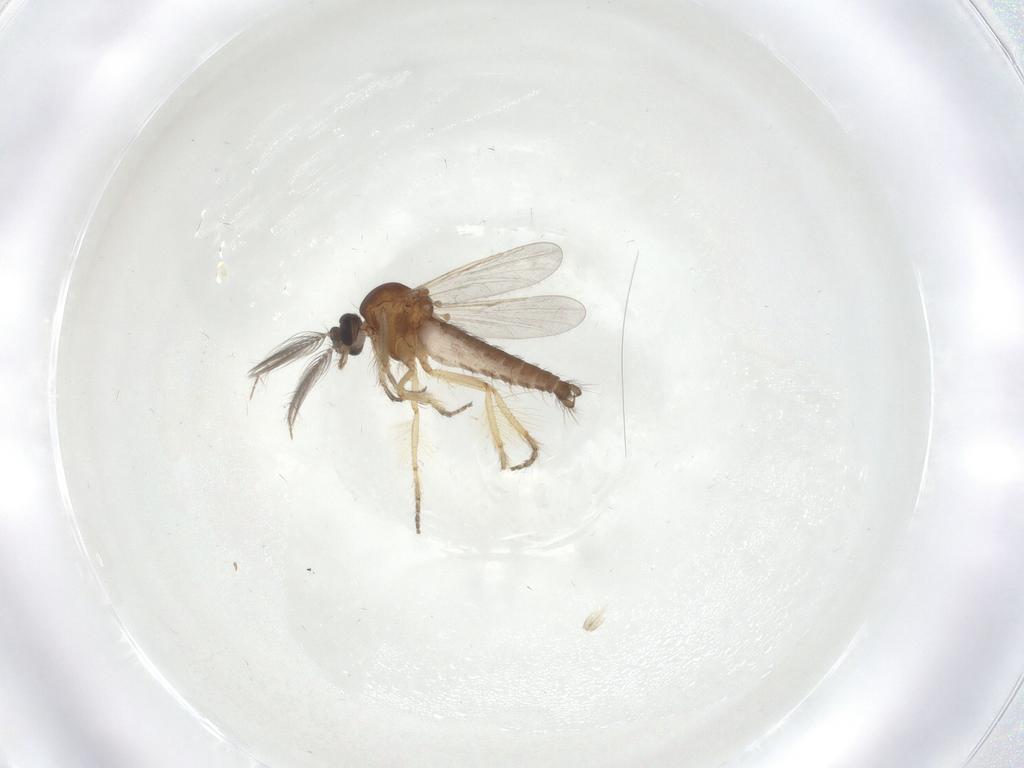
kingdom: Animalia
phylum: Arthropoda
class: Insecta
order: Diptera
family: Ceratopogonidae
